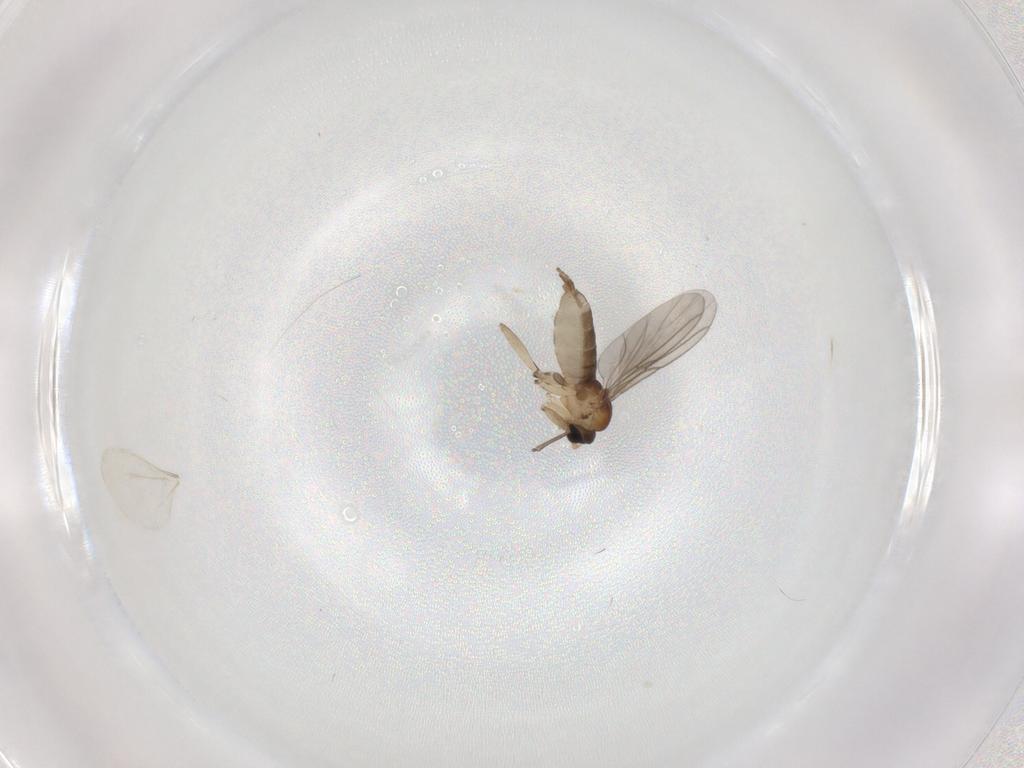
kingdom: Animalia
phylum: Arthropoda
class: Insecta
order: Diptera
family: Sciaridae
